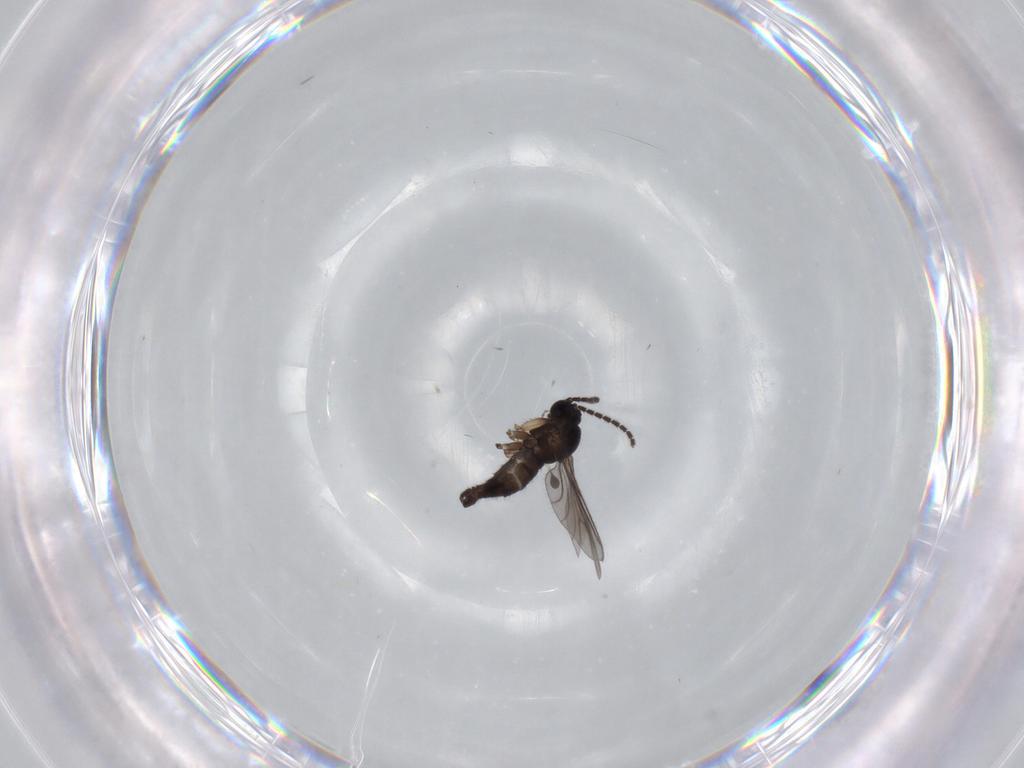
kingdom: Animalia
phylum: Arthropoda
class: Insecta
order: Diptera
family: Sciaridae
